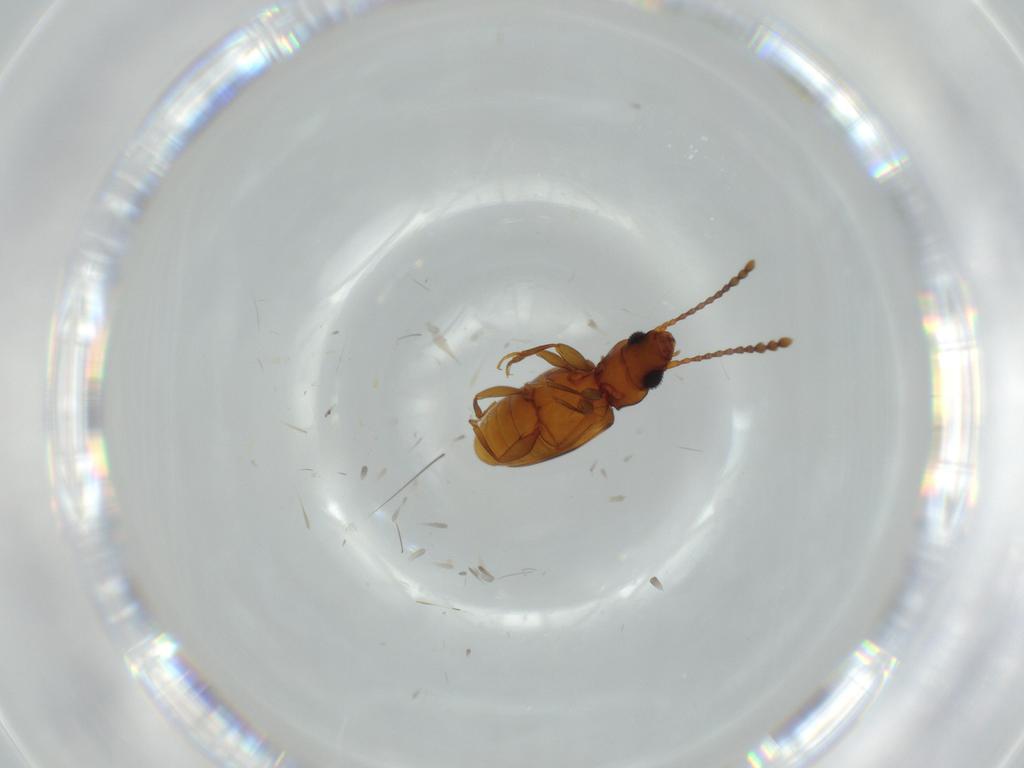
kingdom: Animalia
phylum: Arthropoda
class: Insecta
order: Coleoptera
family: Laemophloeidae
